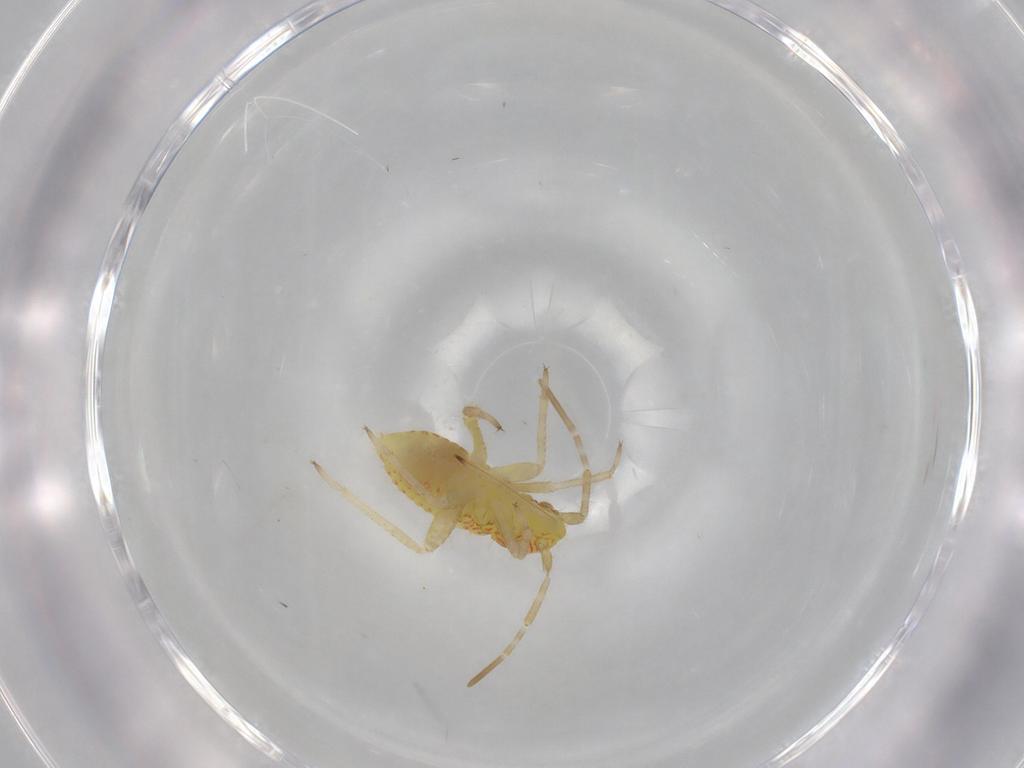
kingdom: Animalia
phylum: Arthropoda
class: Insecta
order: Hemiptera
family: Miridae
